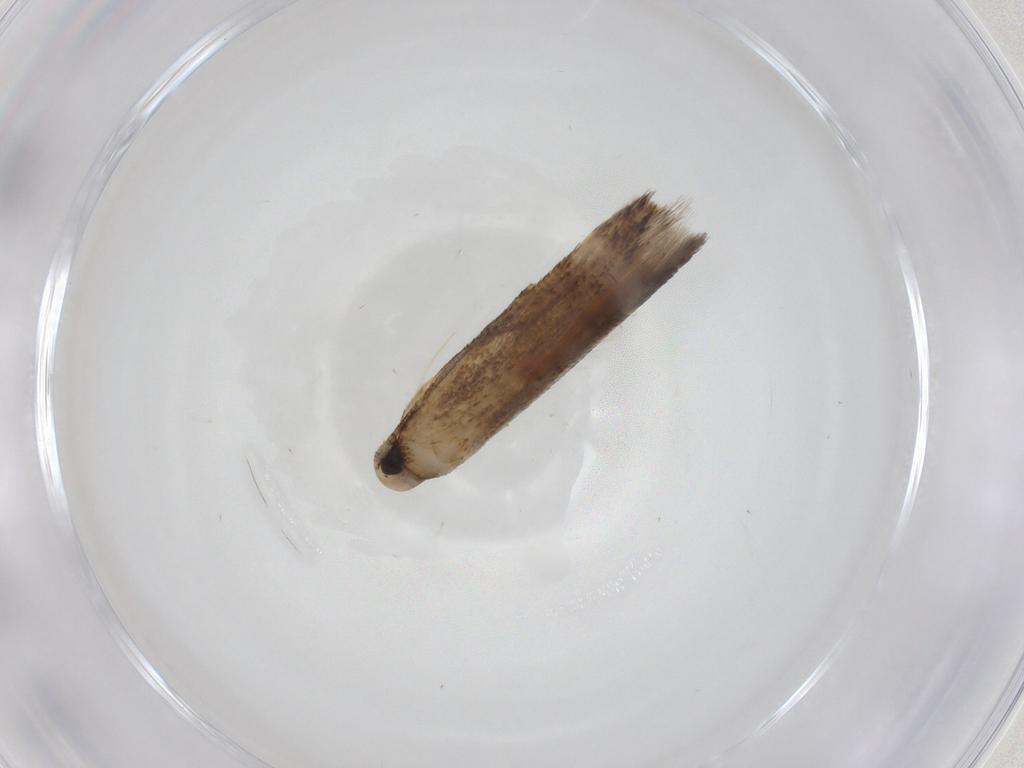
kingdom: Animalia
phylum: Arthropoda
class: Insecta
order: Lepidoptera
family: Cosmopterigidae
